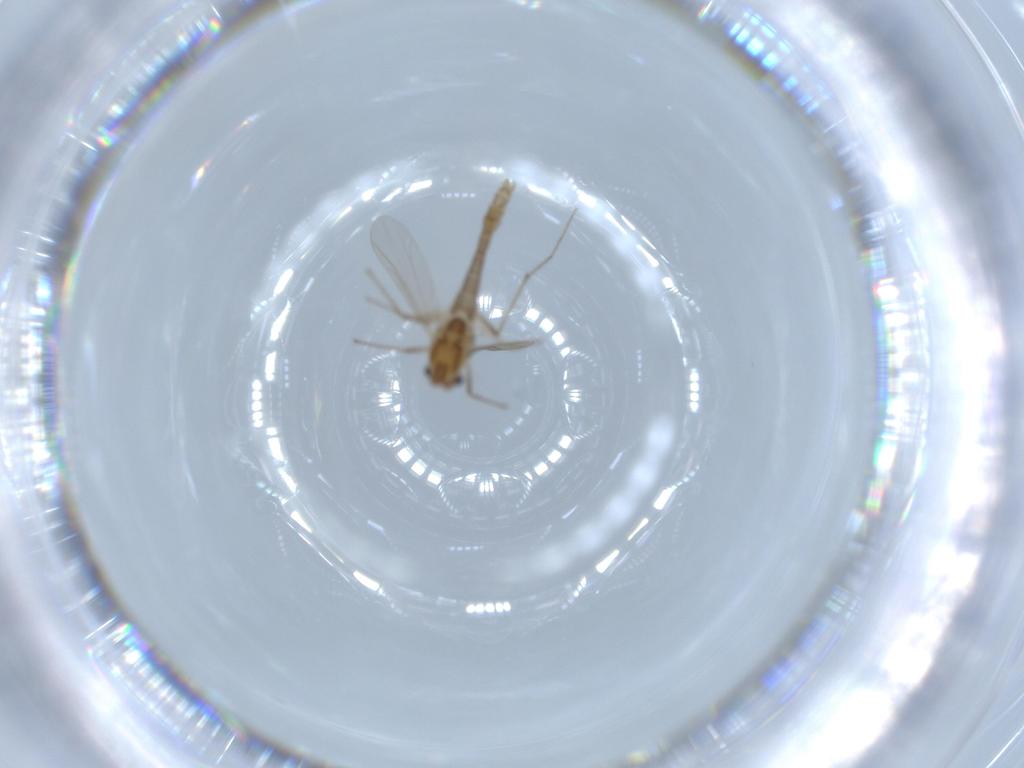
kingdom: Animalia
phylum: Arthropoda
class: Insecta
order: Diptera
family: Chironomidae
